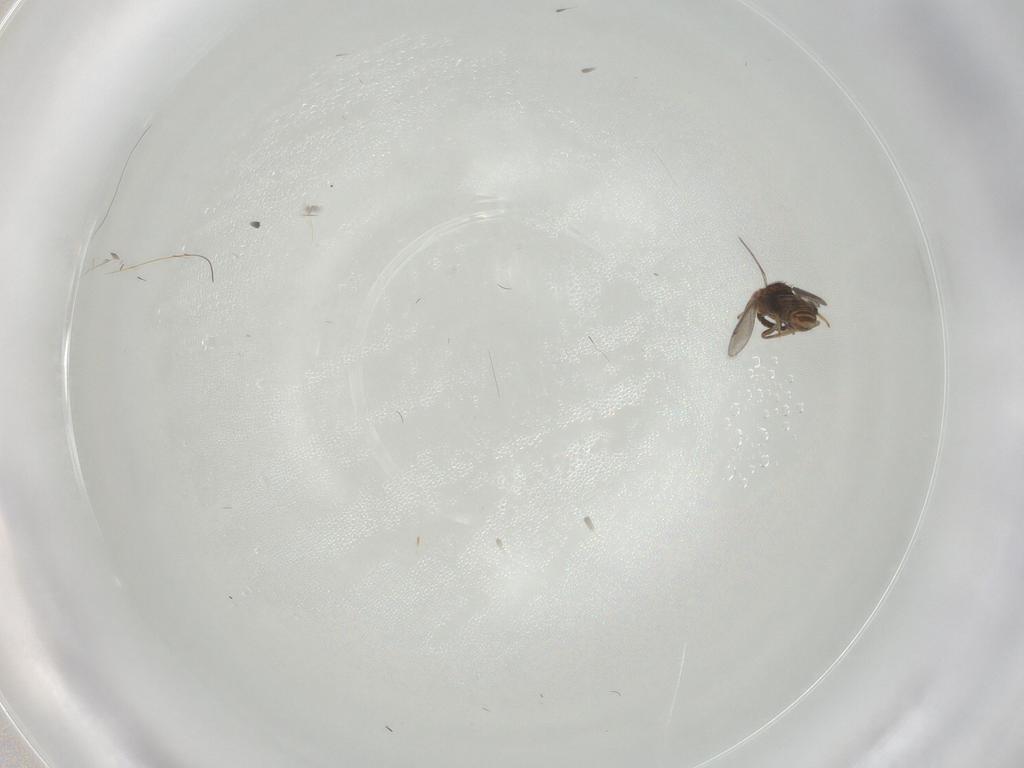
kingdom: Animalia
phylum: Arthropoda
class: Insecta
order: Hymenoptera
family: Aphelinidae
